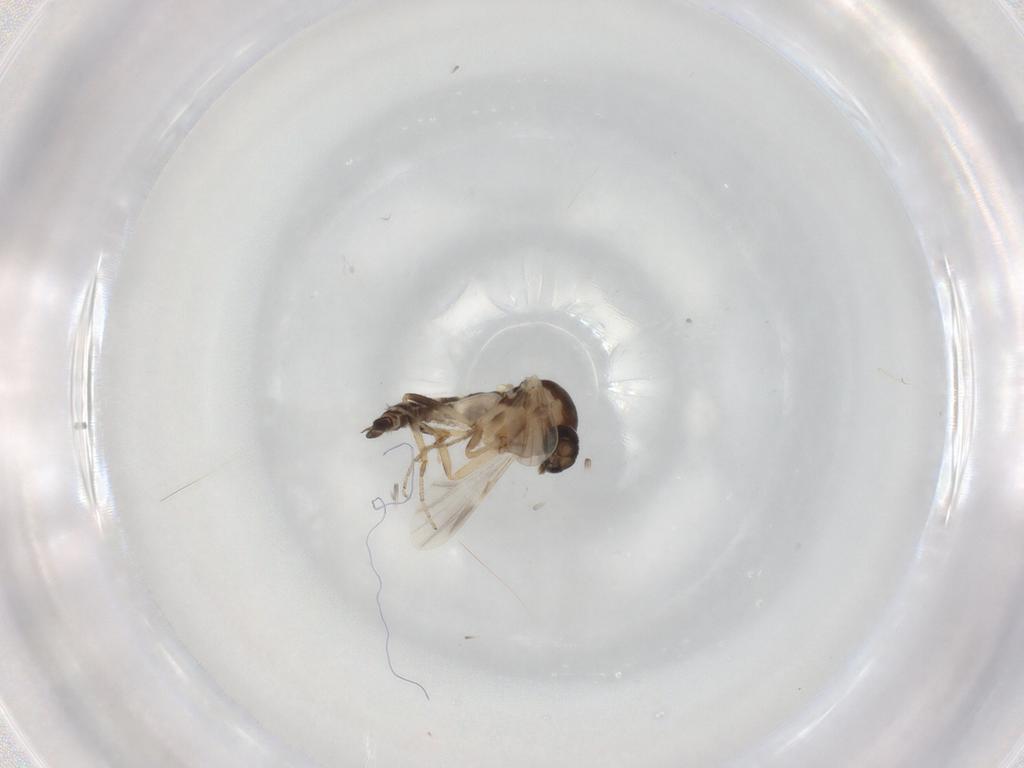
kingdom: Animalia
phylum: Arthropoda
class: Insecta
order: Diptera
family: Ceratopogonidae
